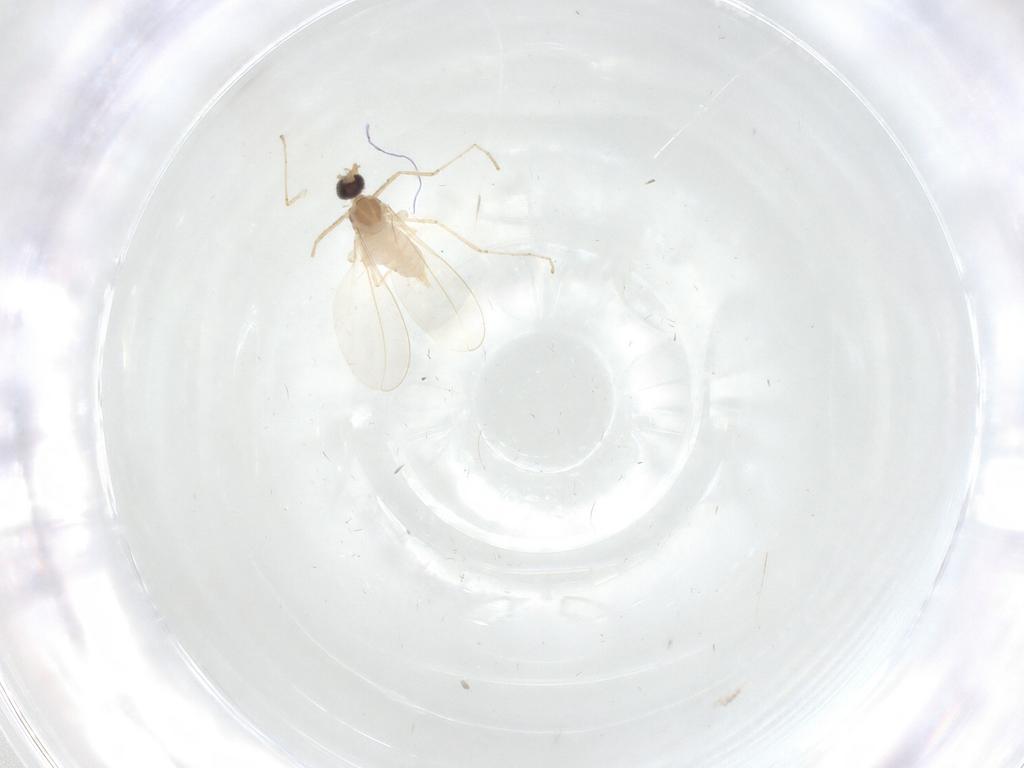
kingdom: Animalia
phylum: Arthropoda
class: Insecta
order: Diptera
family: Cecidomyiidae
